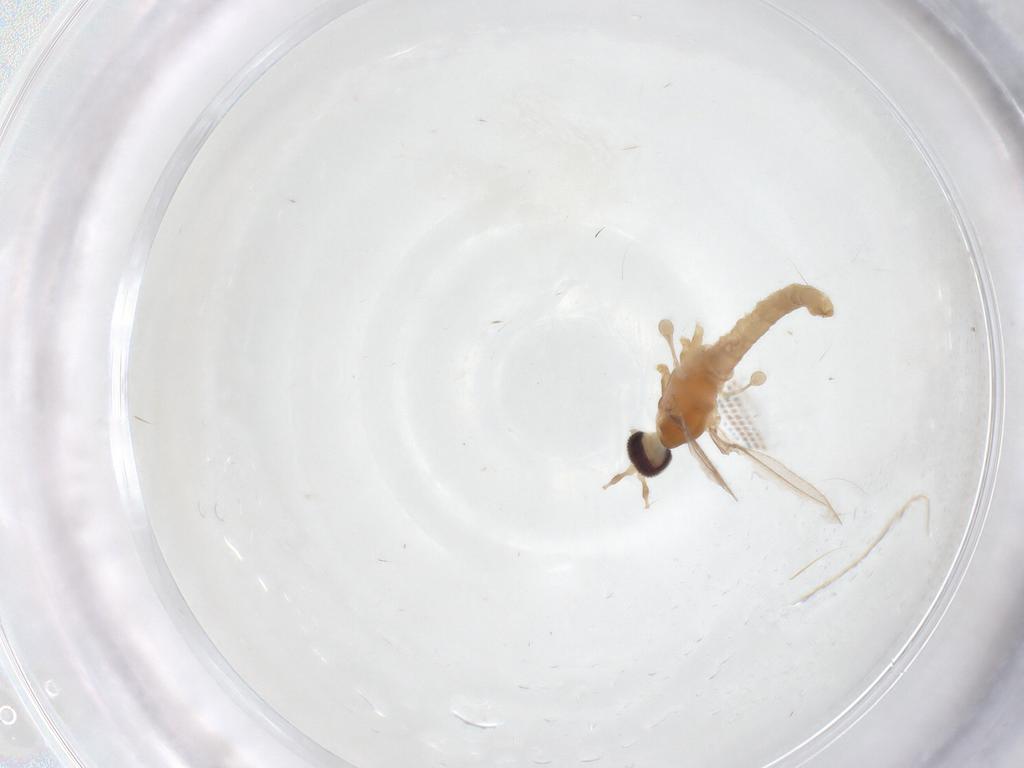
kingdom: Animalia
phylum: Arthropoda
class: Insecta
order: Diptera
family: Cecidomyiidae
